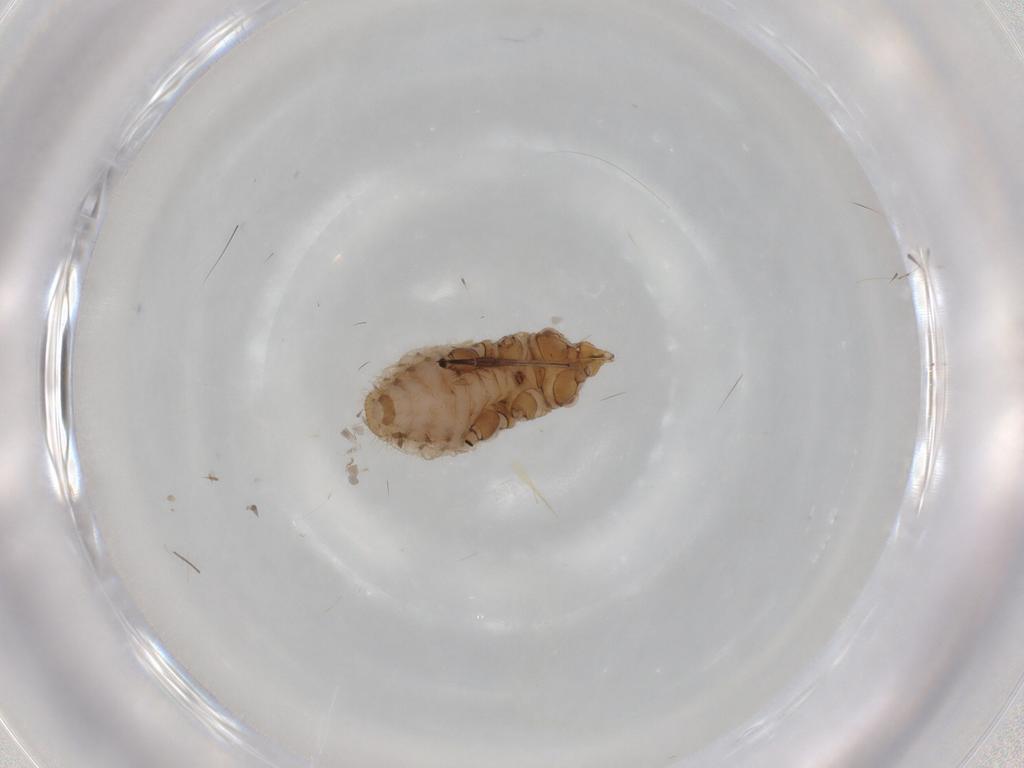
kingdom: Animalia
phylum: Arthropoda
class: Insecta
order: Hemiptera
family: Aphididae
